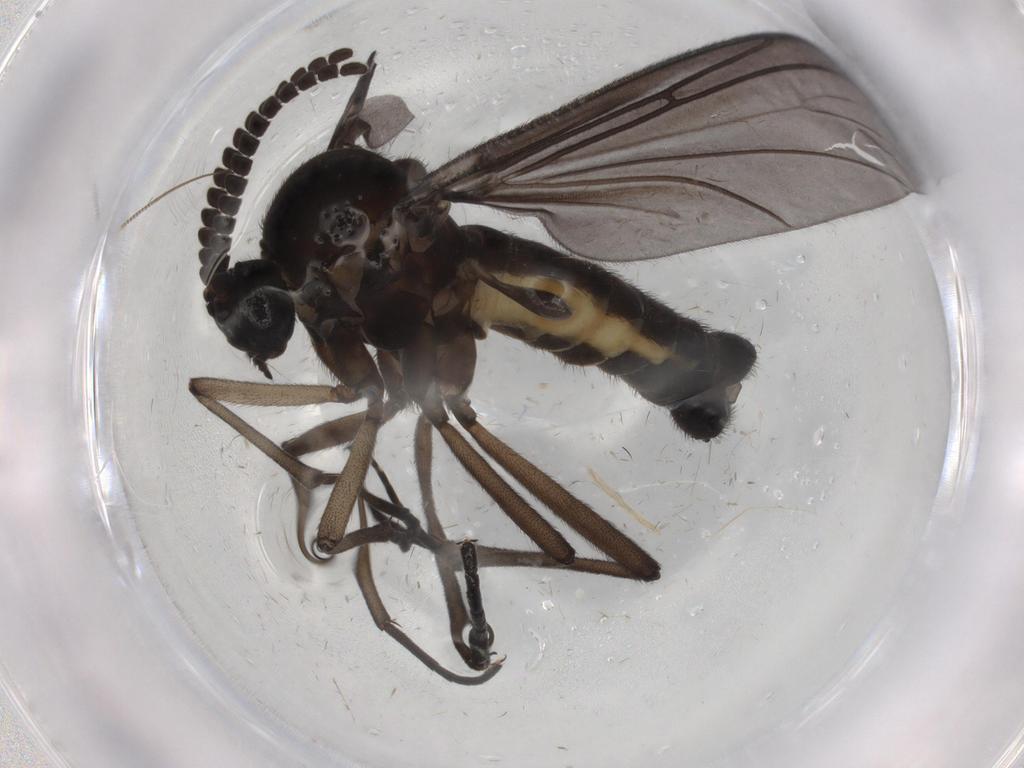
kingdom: Animalia
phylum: Arthropoda
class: Insecta
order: Diptera
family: Sciaridae
